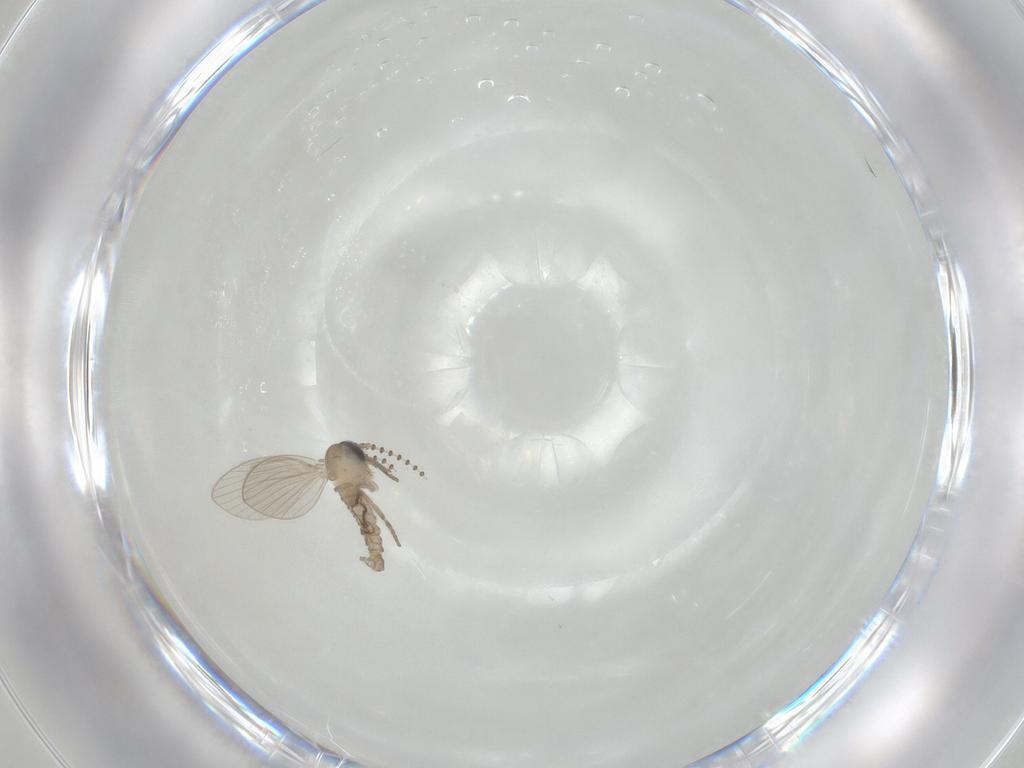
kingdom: Animalia
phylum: Arthropoda
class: Insecta
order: Diptera
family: Psychodidae
